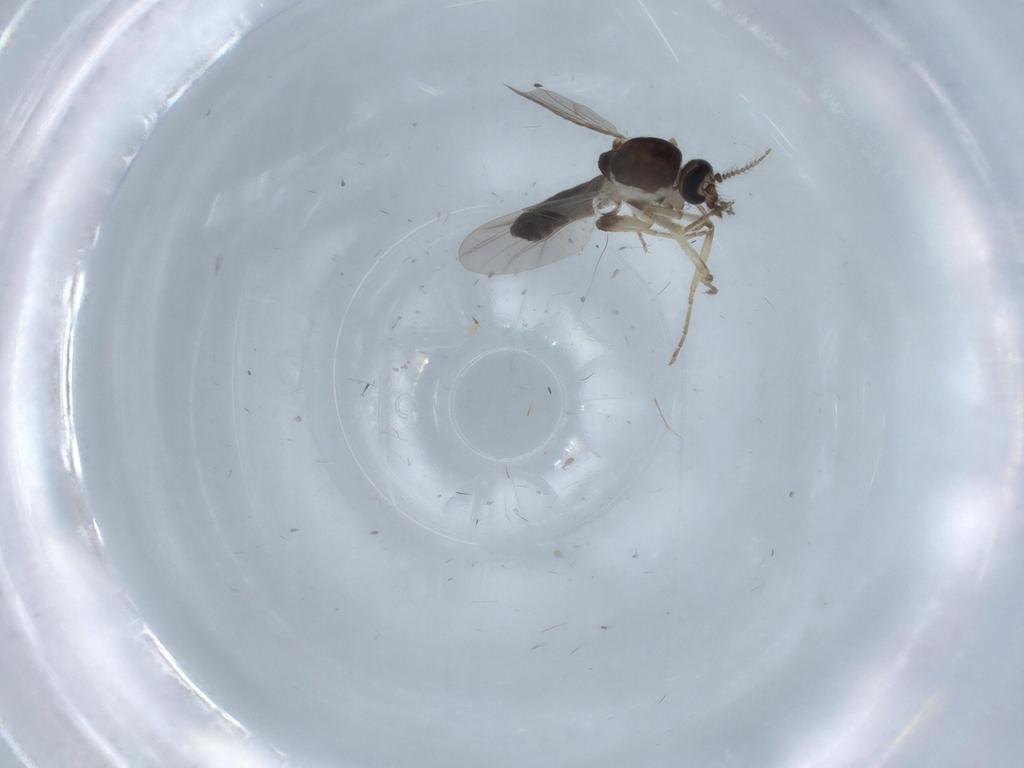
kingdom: Animalia
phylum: Arthropoda
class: Insecta
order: Diptera
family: Ceratopogonidae
